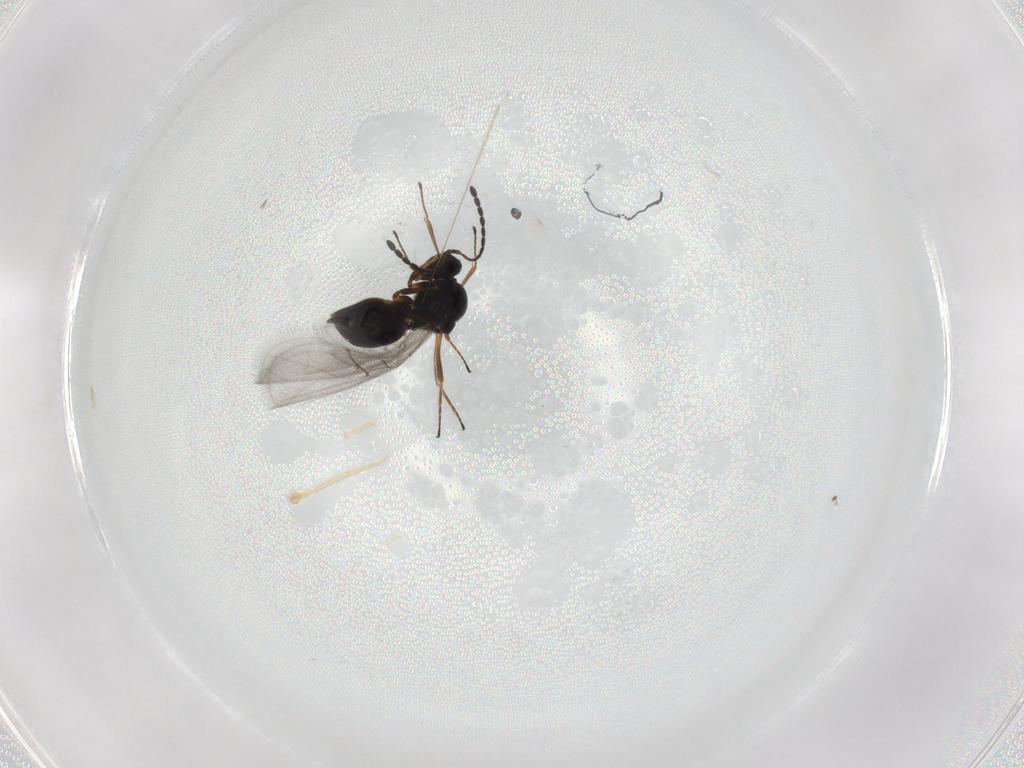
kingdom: Animalia
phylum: Arthropoda
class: Insecta
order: Hymenoptera
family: Figitidae
